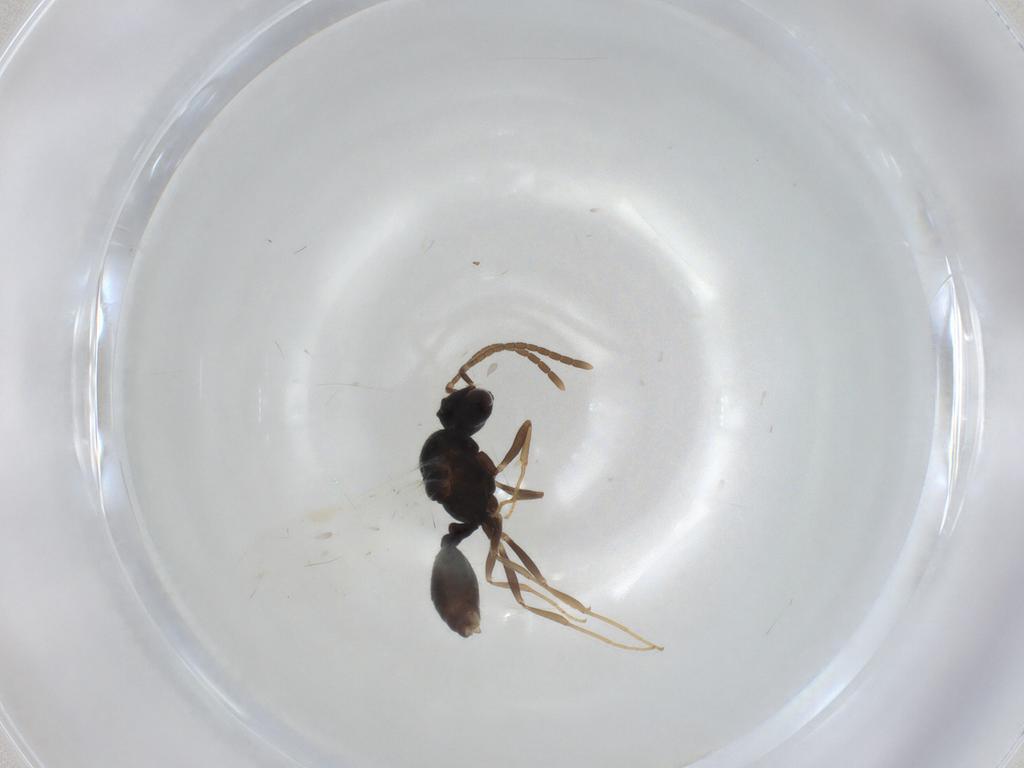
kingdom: Animalia
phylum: Arthropoda
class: Insecta
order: Hymenoptera
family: Formicidae
